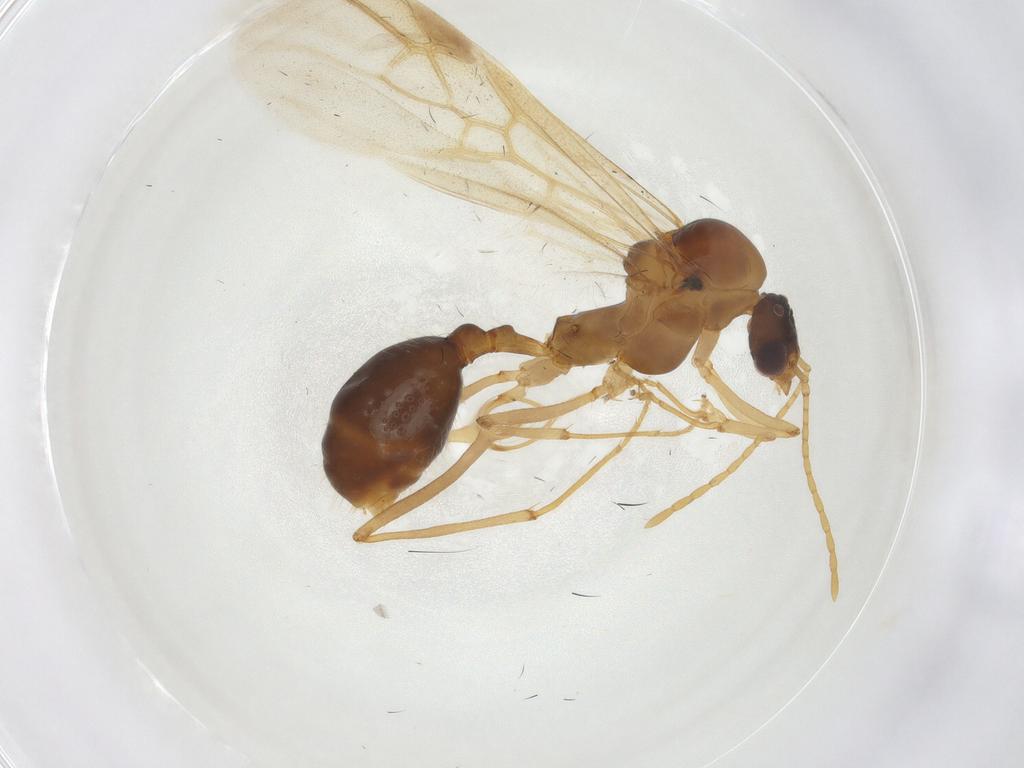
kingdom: Animalia
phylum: Arthropoda
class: Insecta
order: Hymenoptera
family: Formicidae
